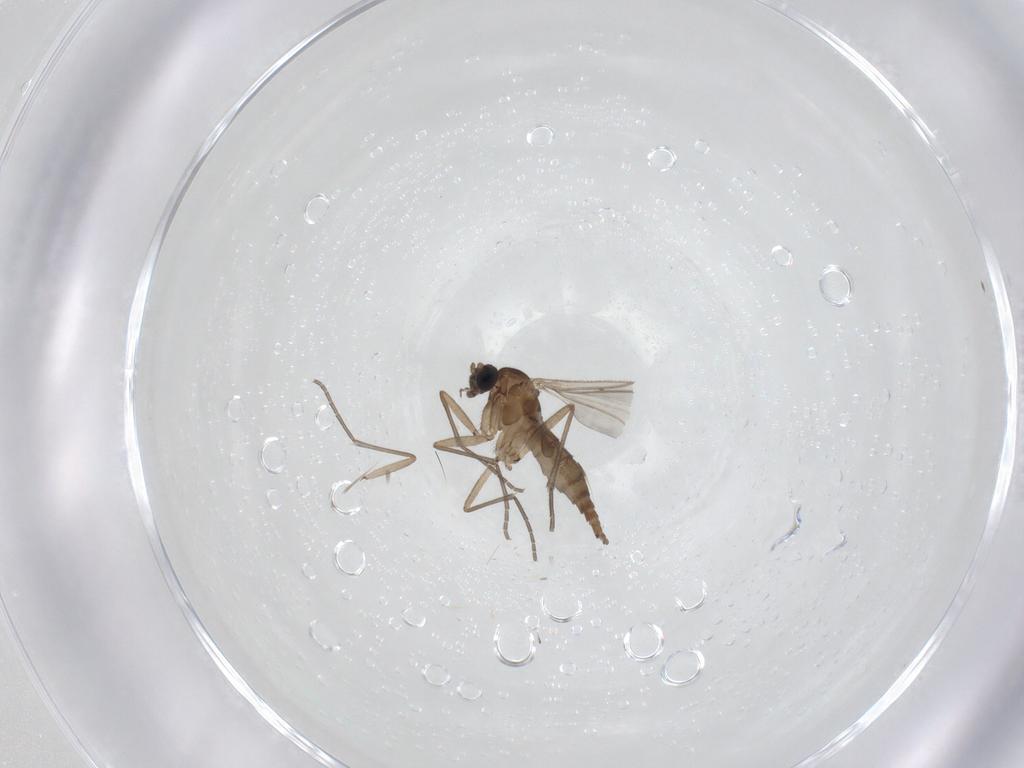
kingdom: Animalia
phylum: Arthropoda
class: Insecta
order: Diptera
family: Sciaridae
